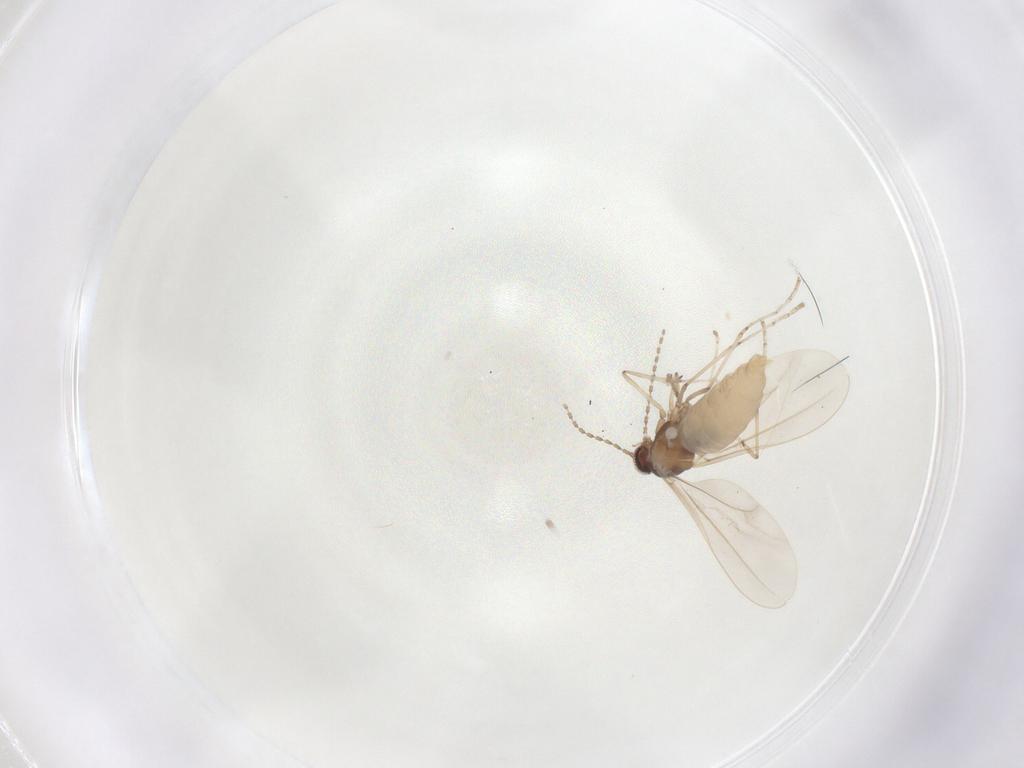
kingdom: Animalia
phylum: Arthropoda
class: Insecta
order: Diptera
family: Cecidomyiidae
